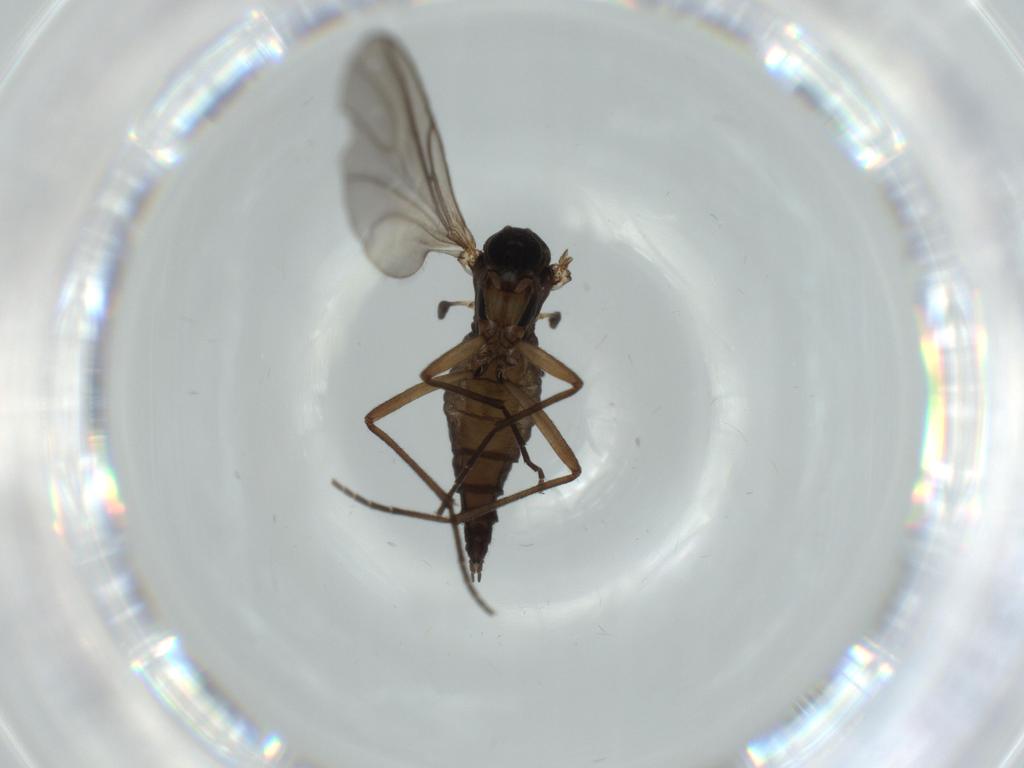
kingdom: Animalia
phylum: Arthropoda
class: Insecta
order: Diptera
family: Sciaridae
